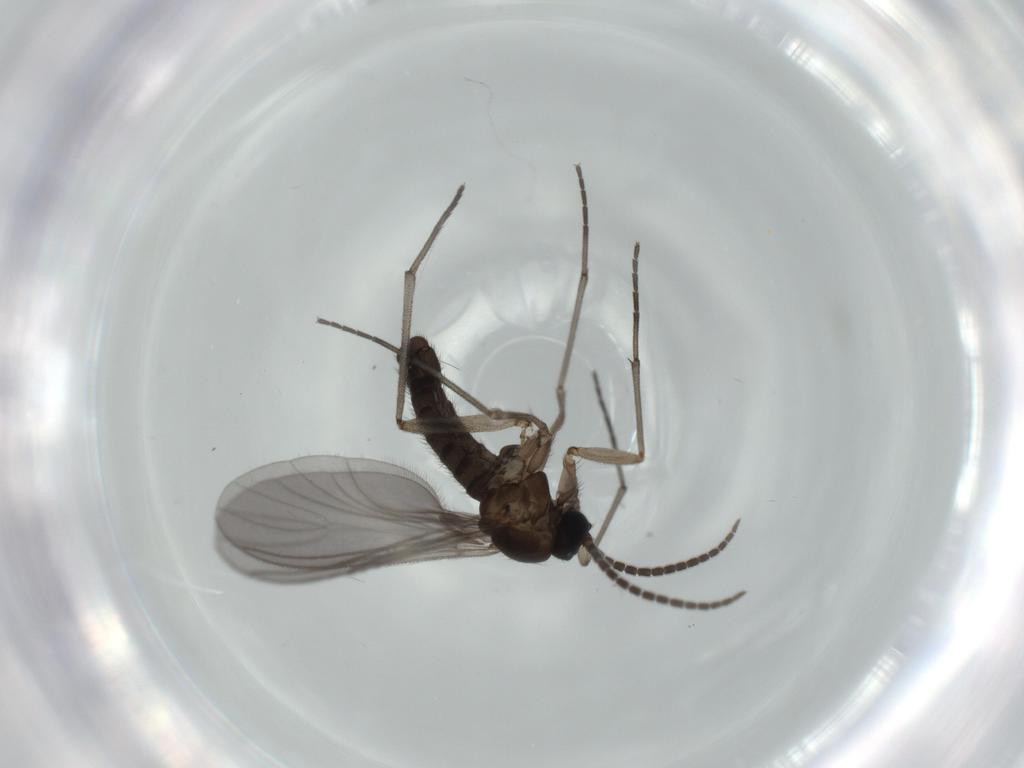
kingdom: Animalia
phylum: Arthropoda
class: Insecta
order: Diptera
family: Sciaridae
